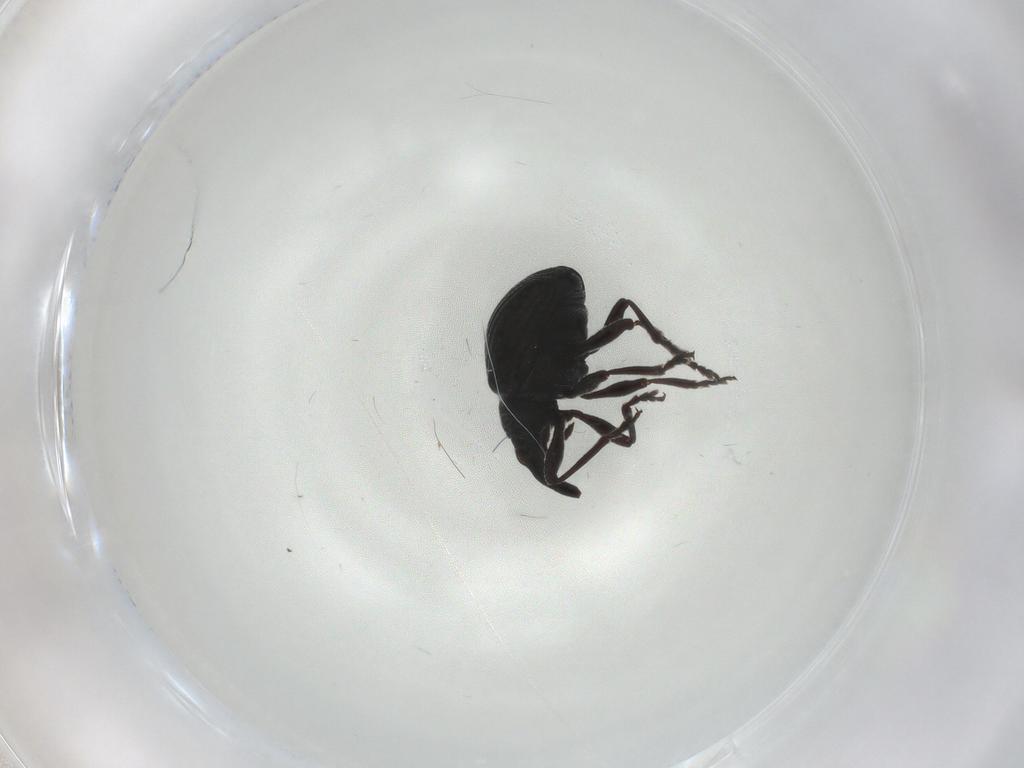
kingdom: Animalia
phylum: Arthropoda
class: Insecta
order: Coleoptera
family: Brentidae
